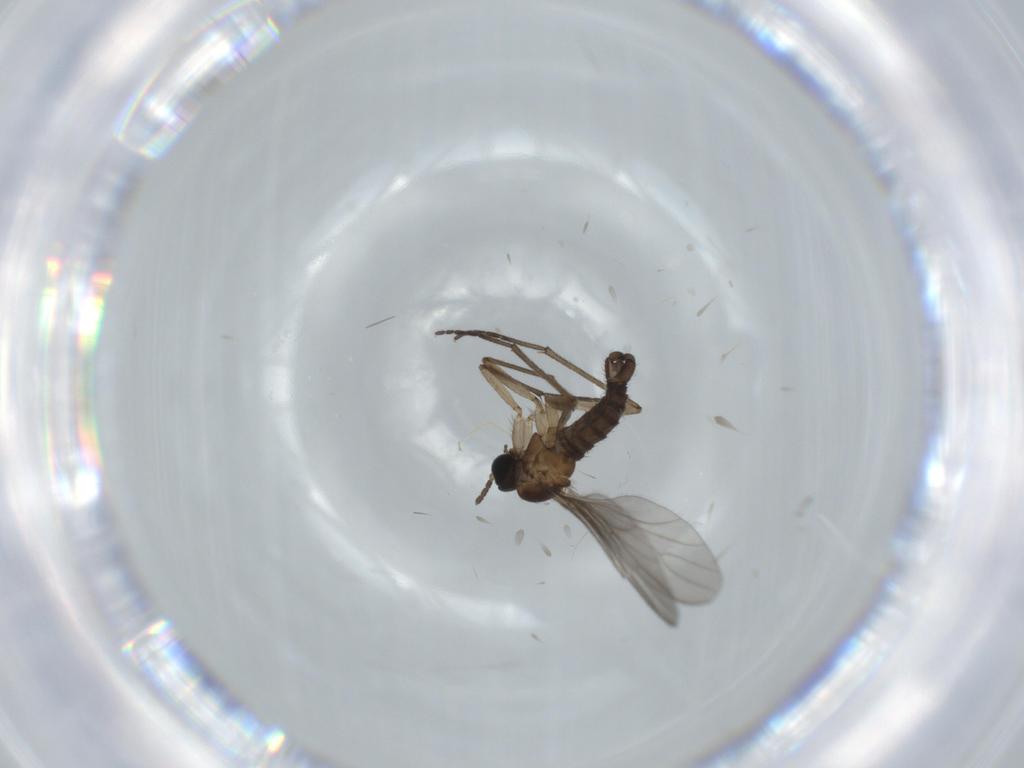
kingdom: Animalia
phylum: Arthropoda
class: Insecta
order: Diptera
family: Sciaridae
